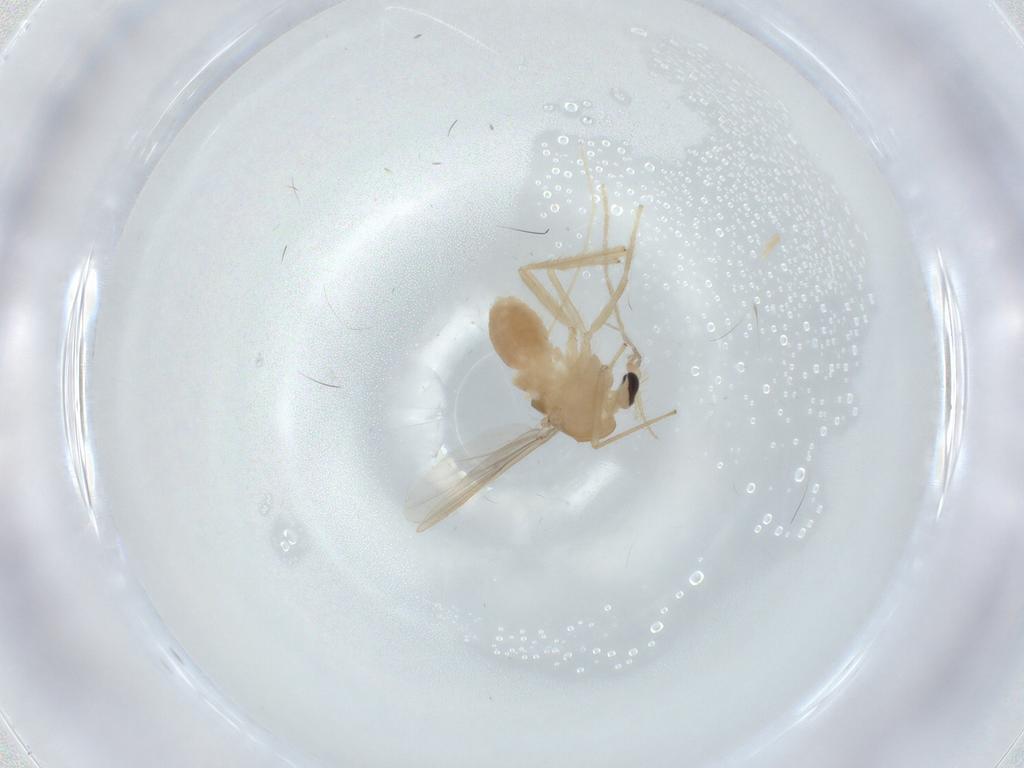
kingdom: Animalia
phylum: Arthropoda
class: Insecta
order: Diptera
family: Chironomidae
